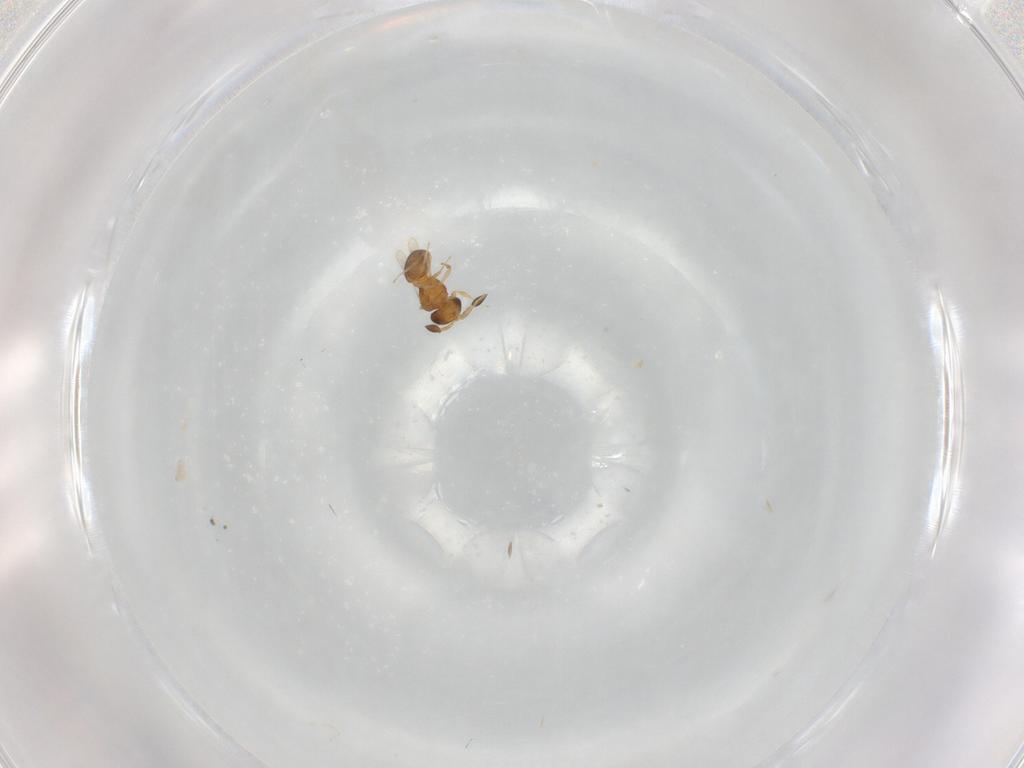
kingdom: Animalia
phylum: Arthropoda
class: Insecta
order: Hymenoptera
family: Scelionidae
